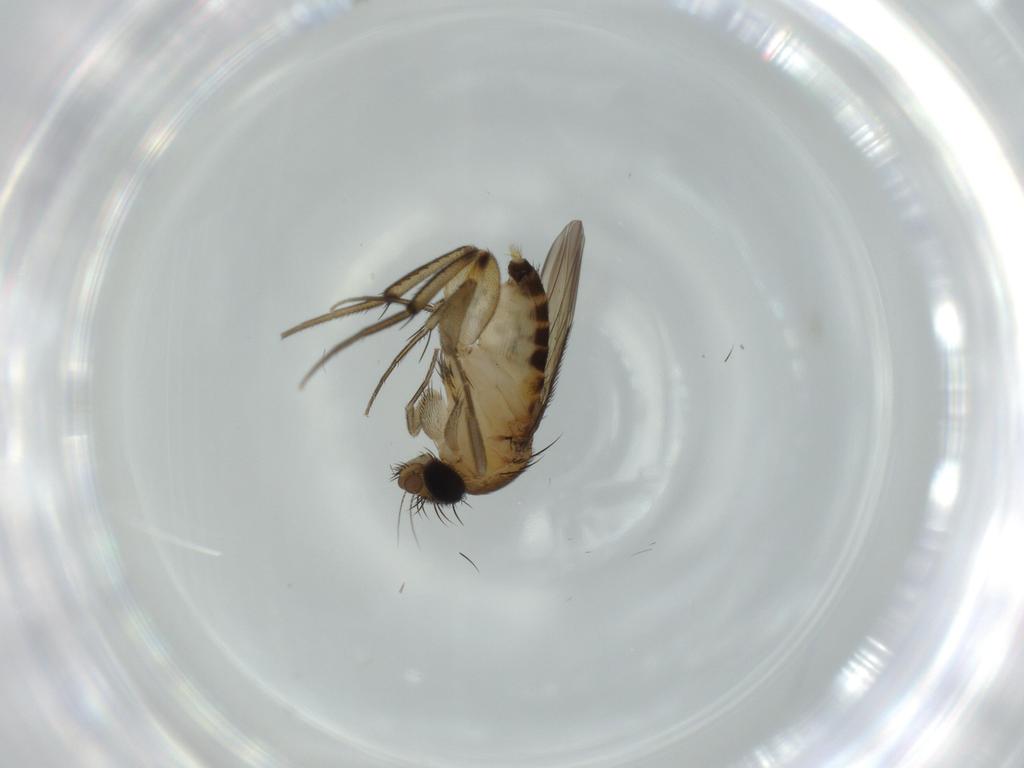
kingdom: Animalia
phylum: Arthropoda
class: Insecta
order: Diptera
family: Phoridae
